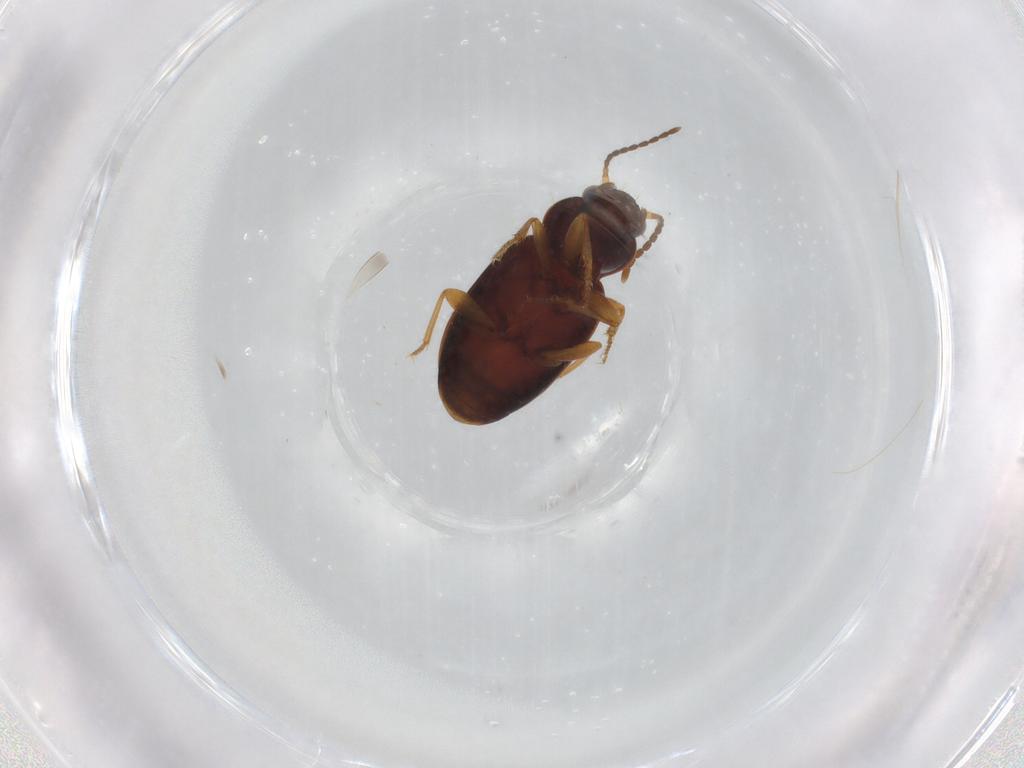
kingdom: Animalia
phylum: Arthropoda
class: Insecta
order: Coleoptera
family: Carabidae
